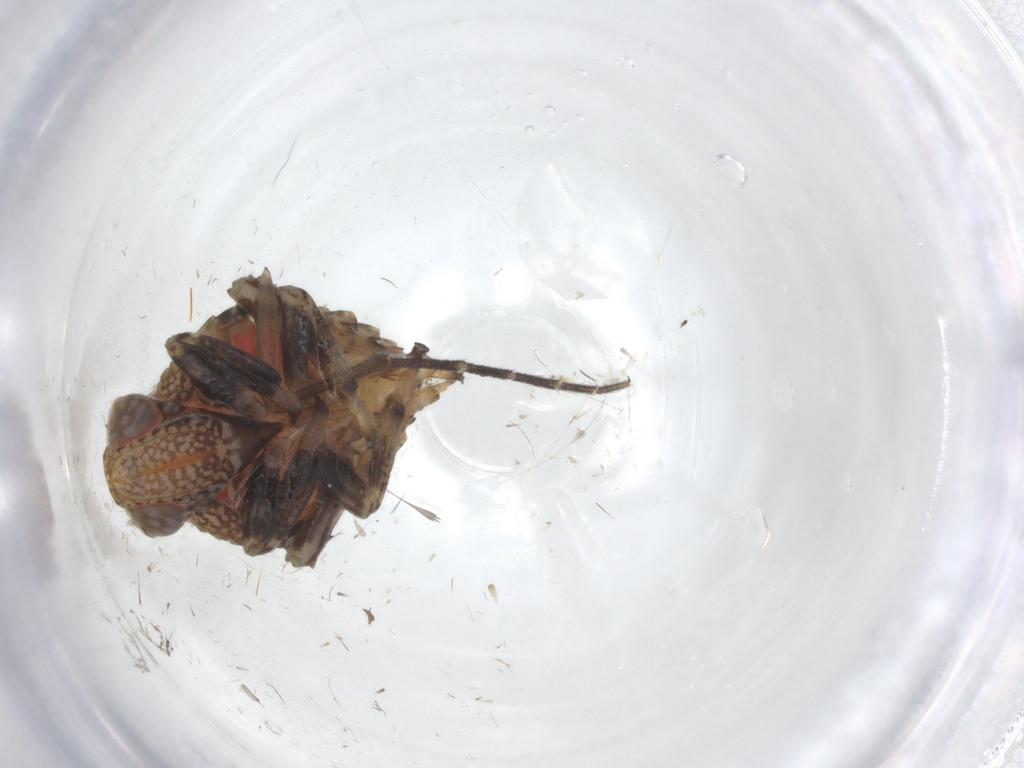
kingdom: Animalia
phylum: Arthropoda
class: Insecta
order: Hemiptera
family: Issidae
